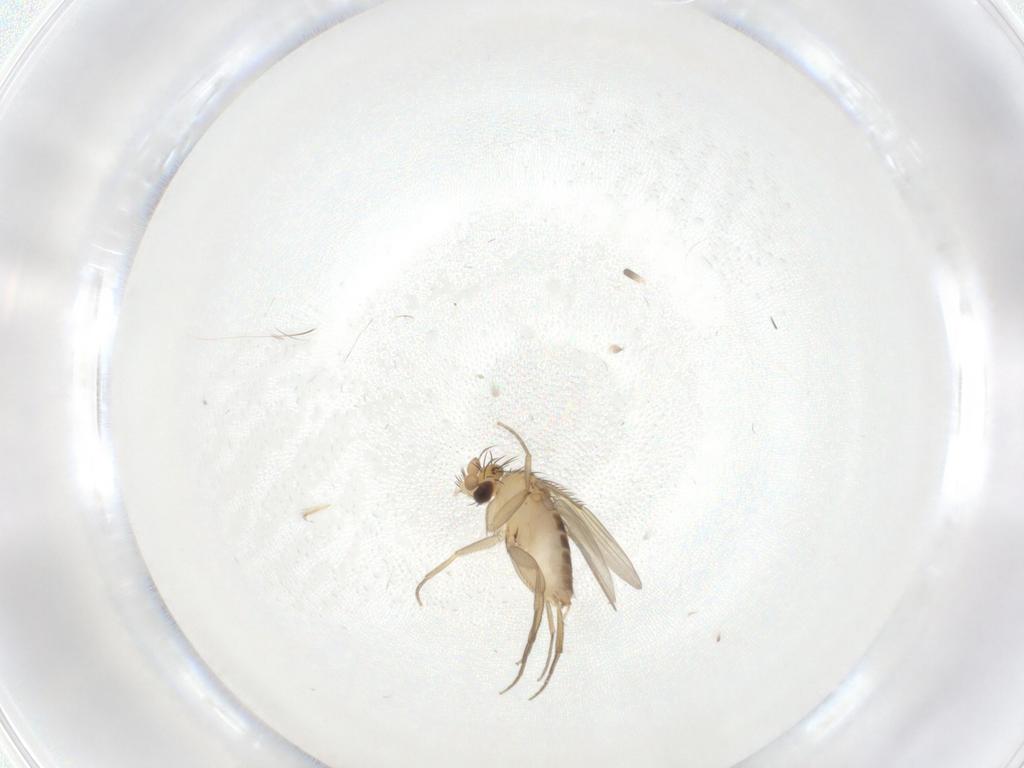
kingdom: Animalia
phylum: Arthropoda
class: Insecta
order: Diptera
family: Phoridae
